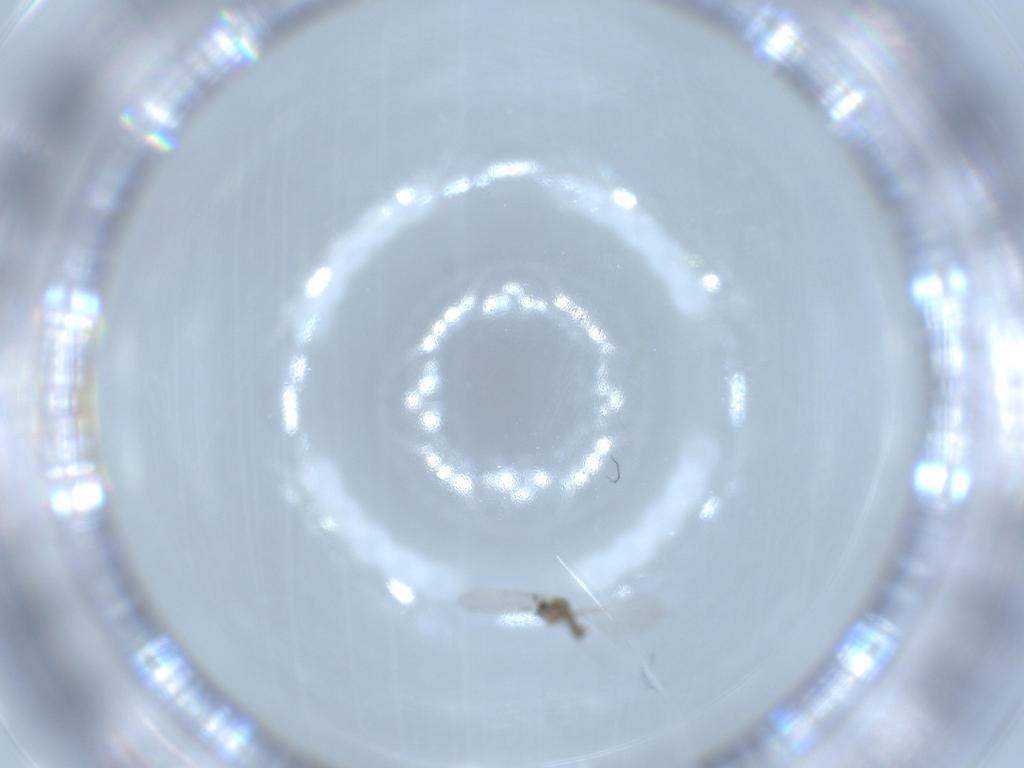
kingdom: Animalia
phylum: Arthropoda
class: Insecta
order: Diptera
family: Cecidomyiidae
